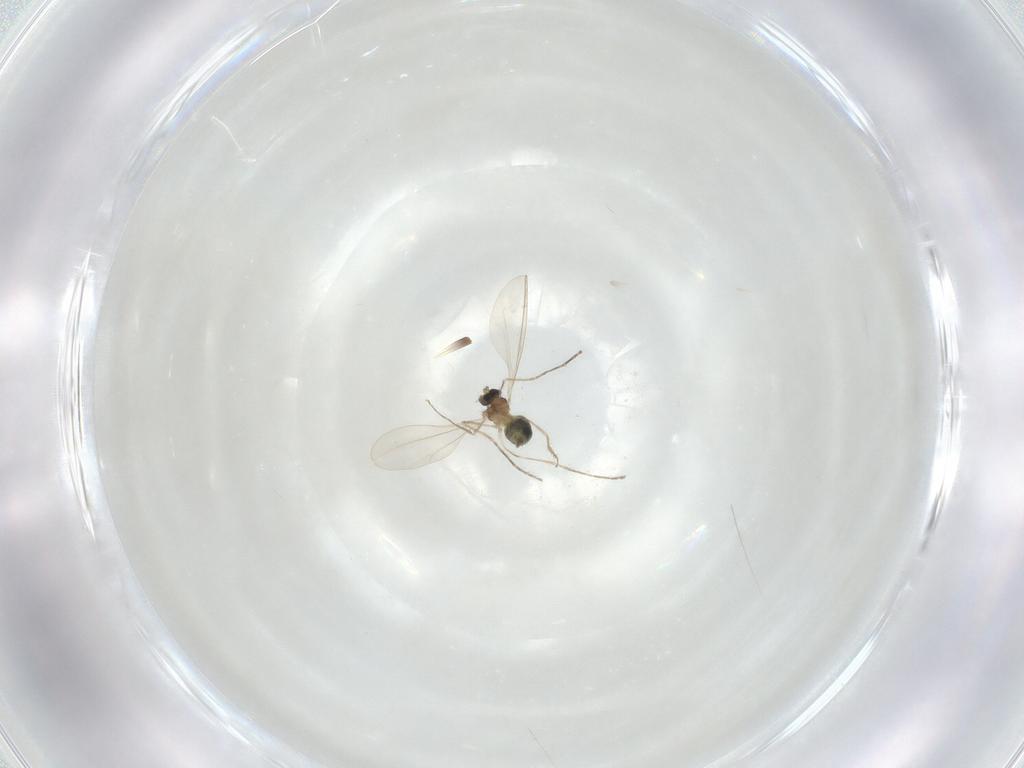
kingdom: Animalia
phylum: Arthropoda
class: Insecta
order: Diptera
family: Cecidomyiidae
